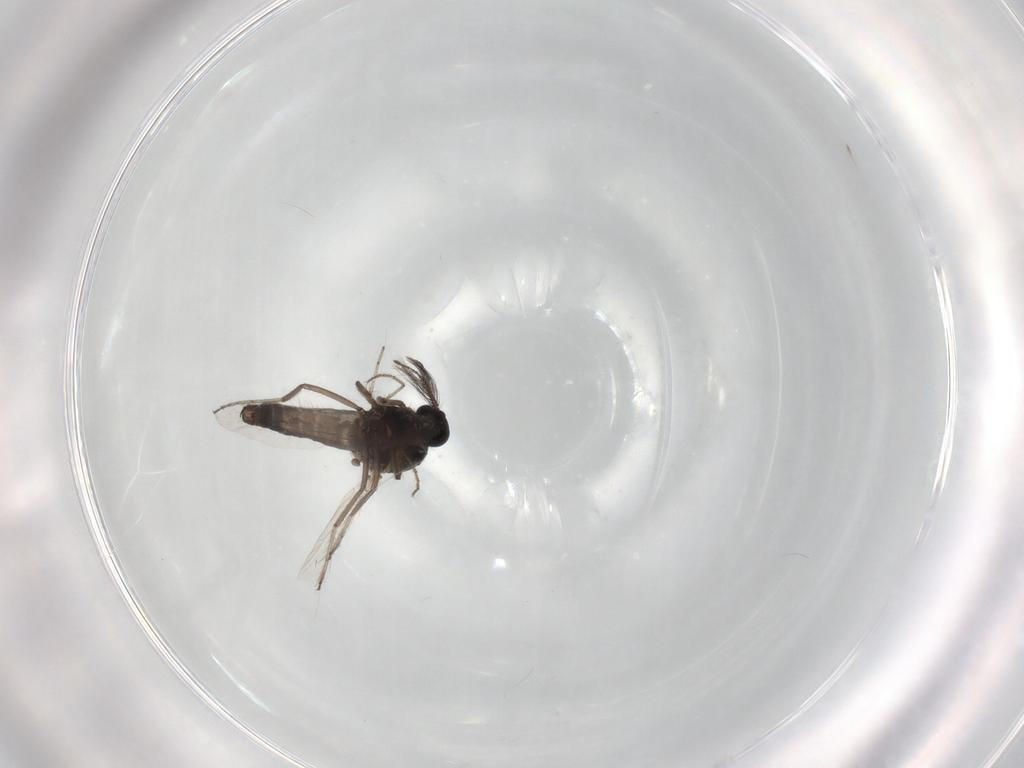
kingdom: Animalia
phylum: Arthropoda
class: Insecta
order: Diptera
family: Ceratopogonidae
